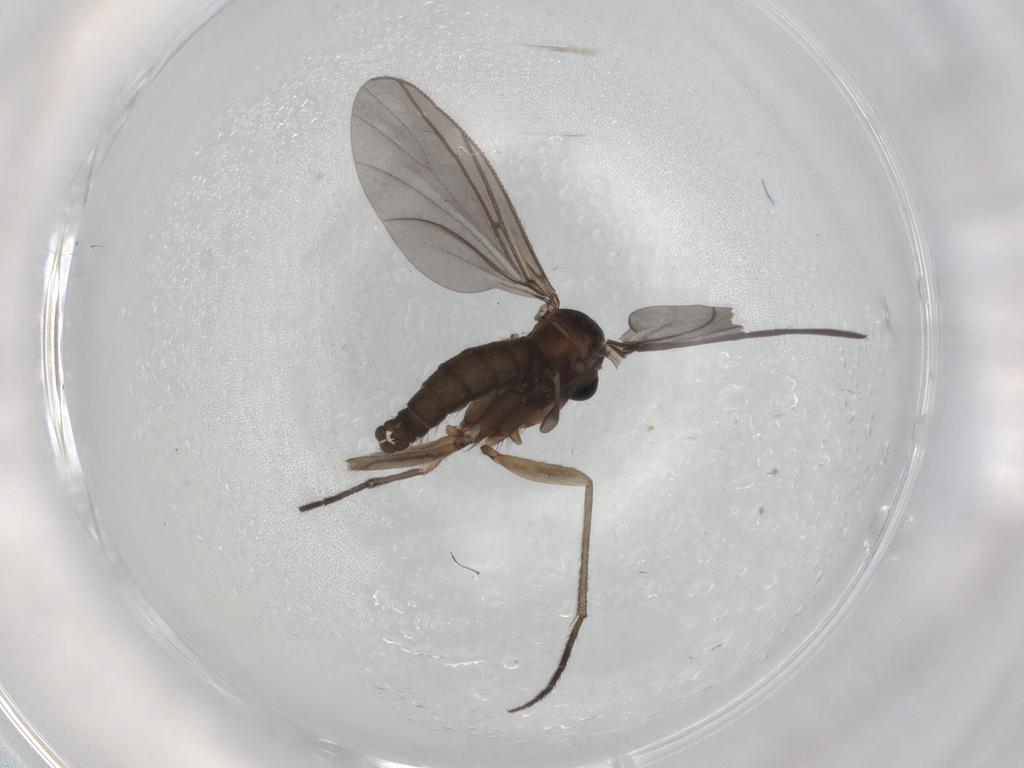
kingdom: Animalia
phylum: Arthropoda
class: Insecta
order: Diptera
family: Sciaridae
